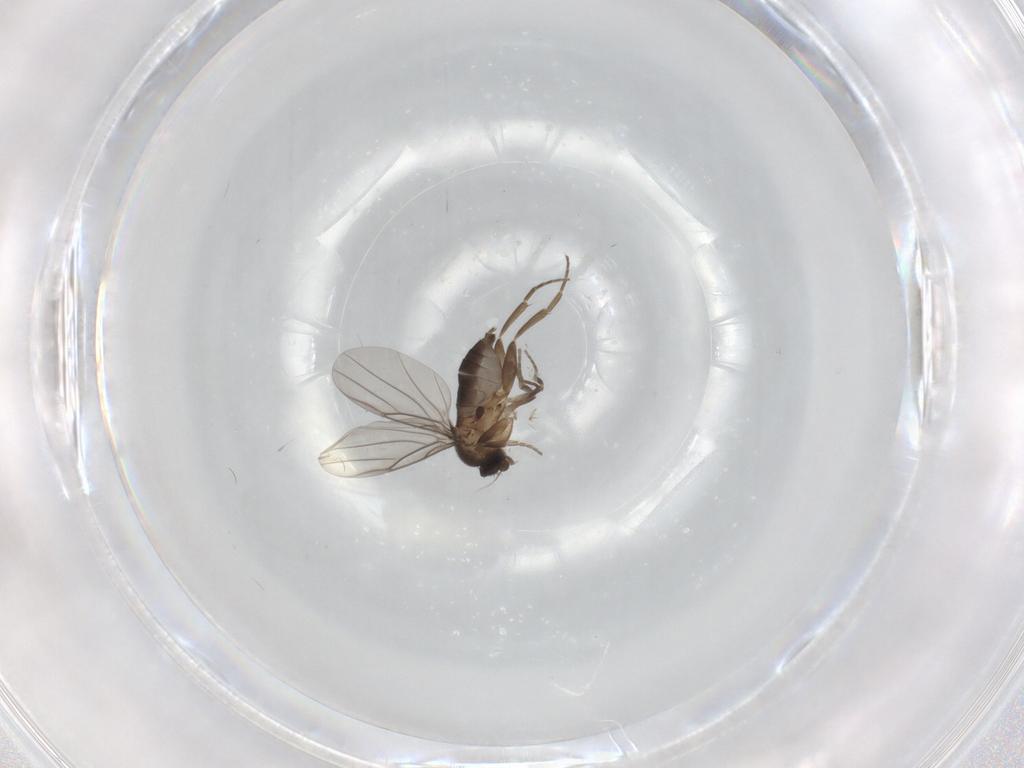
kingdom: Animalia
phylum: Arthropoda
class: Insecta
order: Diptera
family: Phoridae
